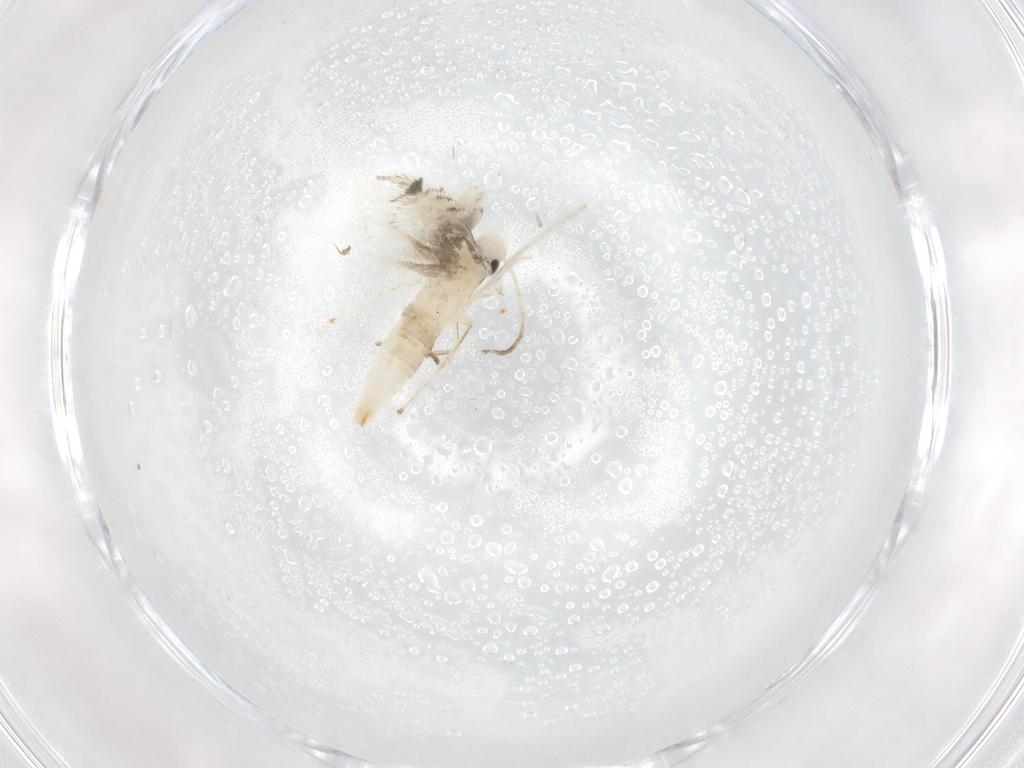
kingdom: Animalia
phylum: Arthropoda
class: Insecta
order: Lepidoptera
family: Gracillariidae
